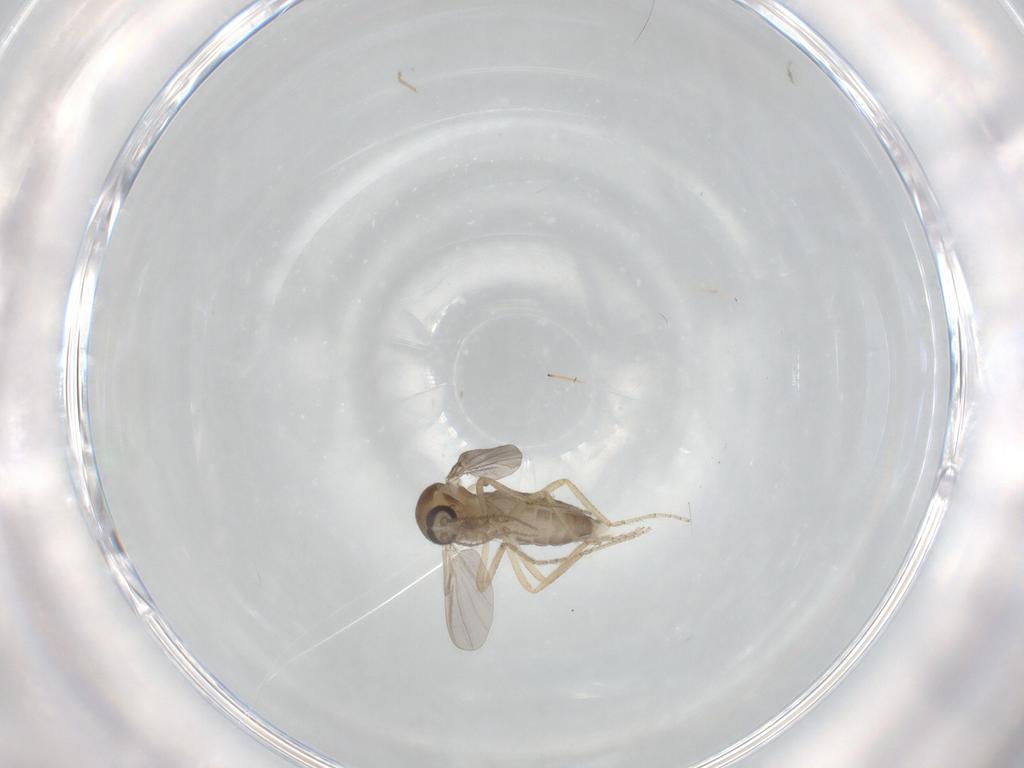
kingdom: Animalia
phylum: Arthropoda
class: Insecta
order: Diptera
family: Ceratopogonidae
